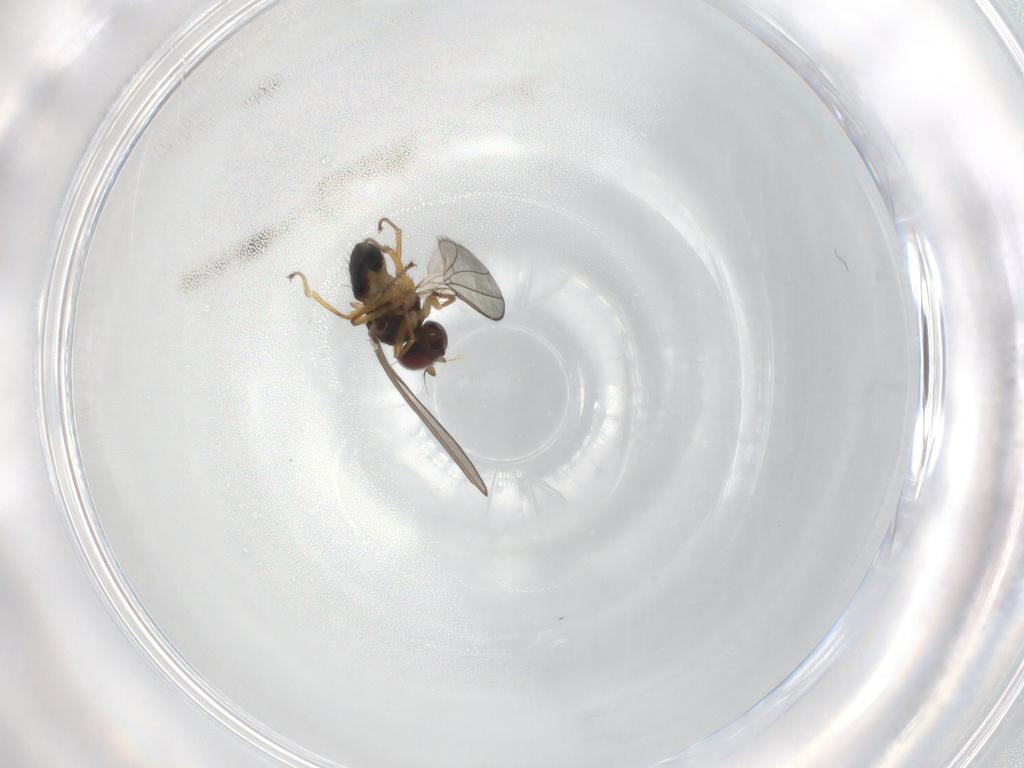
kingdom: Animalia
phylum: Arthropoda
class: Insecta
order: Diptera
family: Ephydridae
